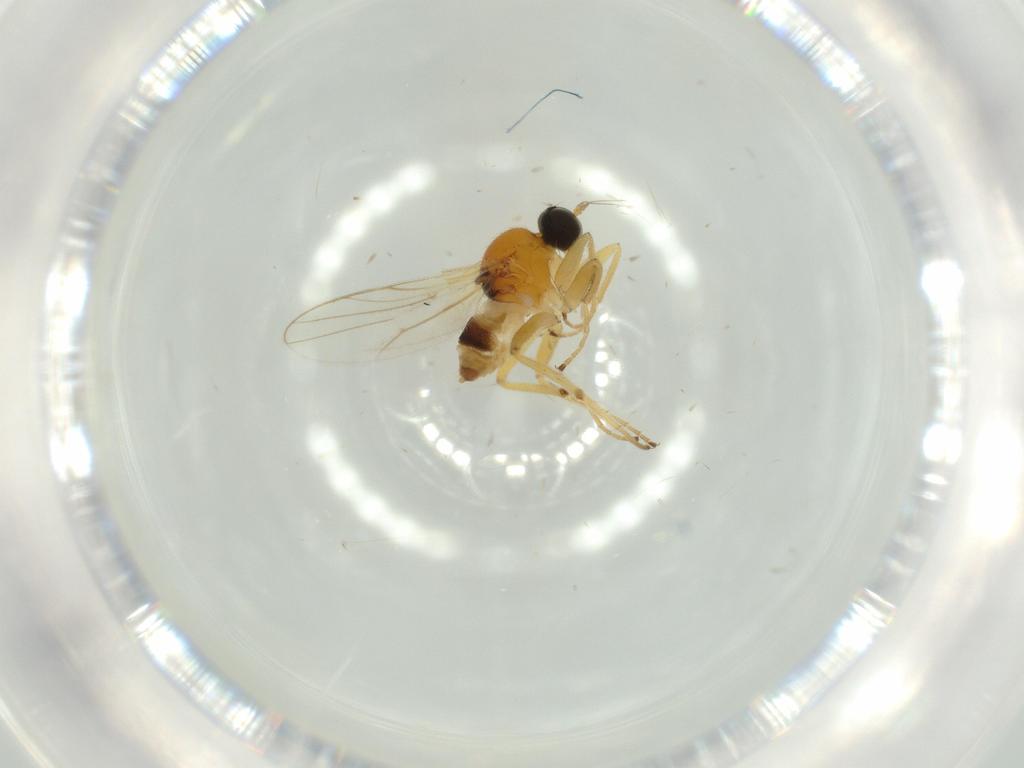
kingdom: Animalia
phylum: Arthropoda
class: Insecta
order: Diptera
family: Hybotidae
